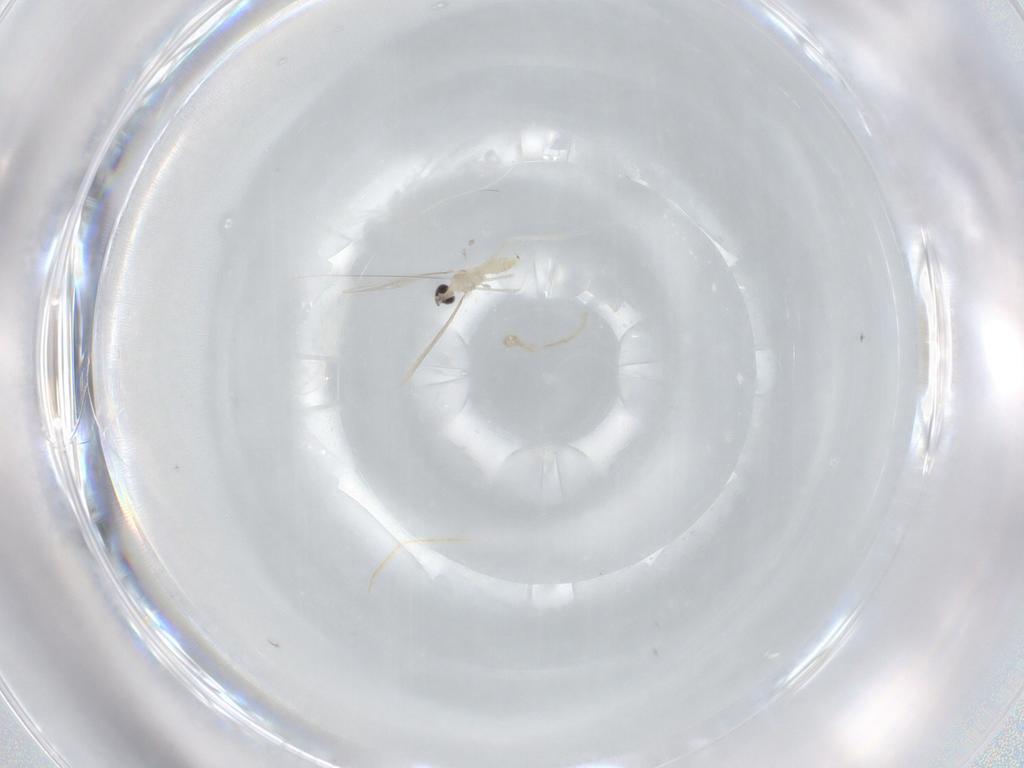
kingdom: Animalia
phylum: Arthropoda
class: Insecta
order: Diptera
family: Cecidomyiidae
